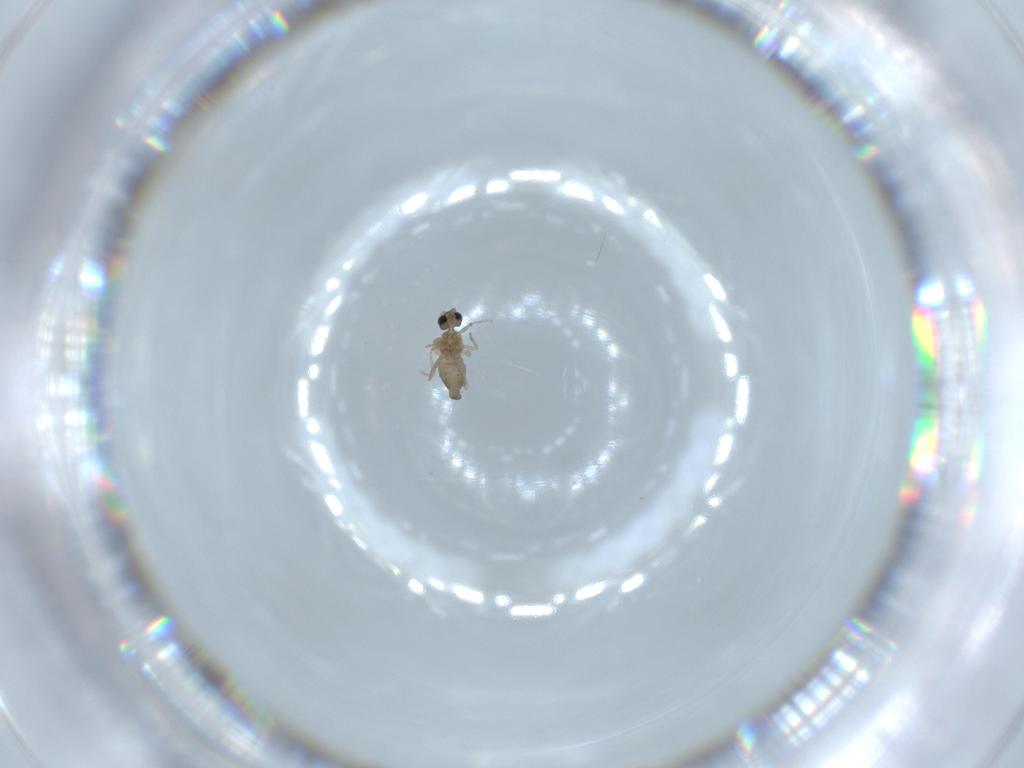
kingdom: Animalia
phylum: Arthropoda
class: Insecta
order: Diptera
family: Cecidomyiidae
